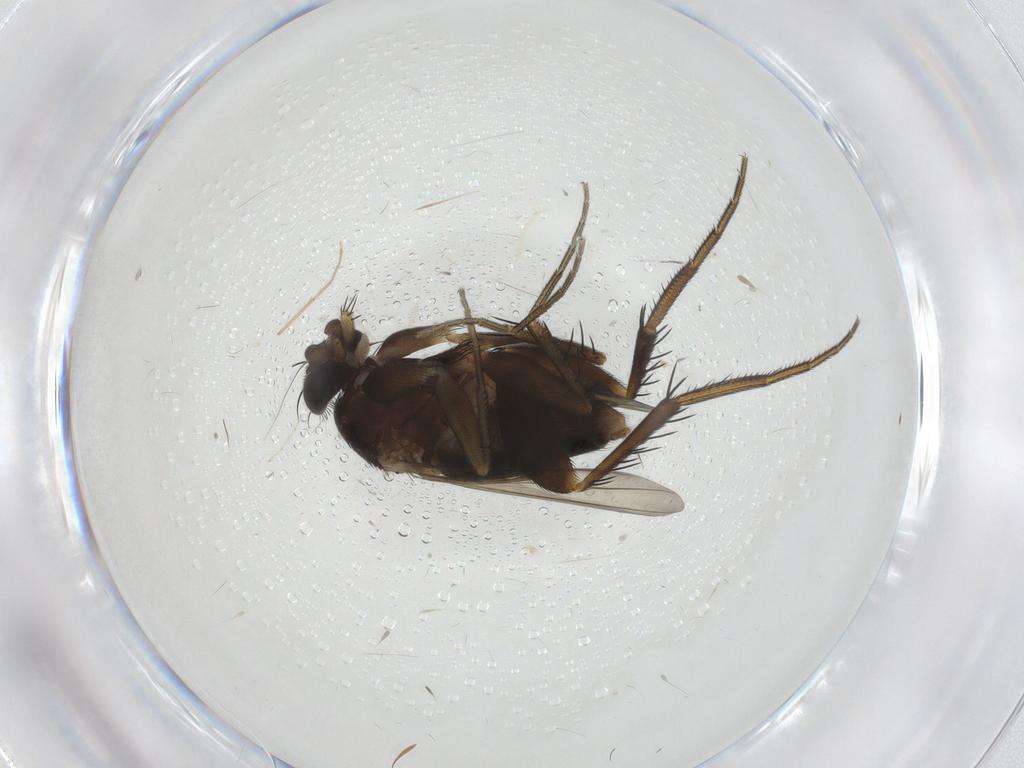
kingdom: Animalia
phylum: Arthropoda
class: Insecta
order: Diptera
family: Phoridae
